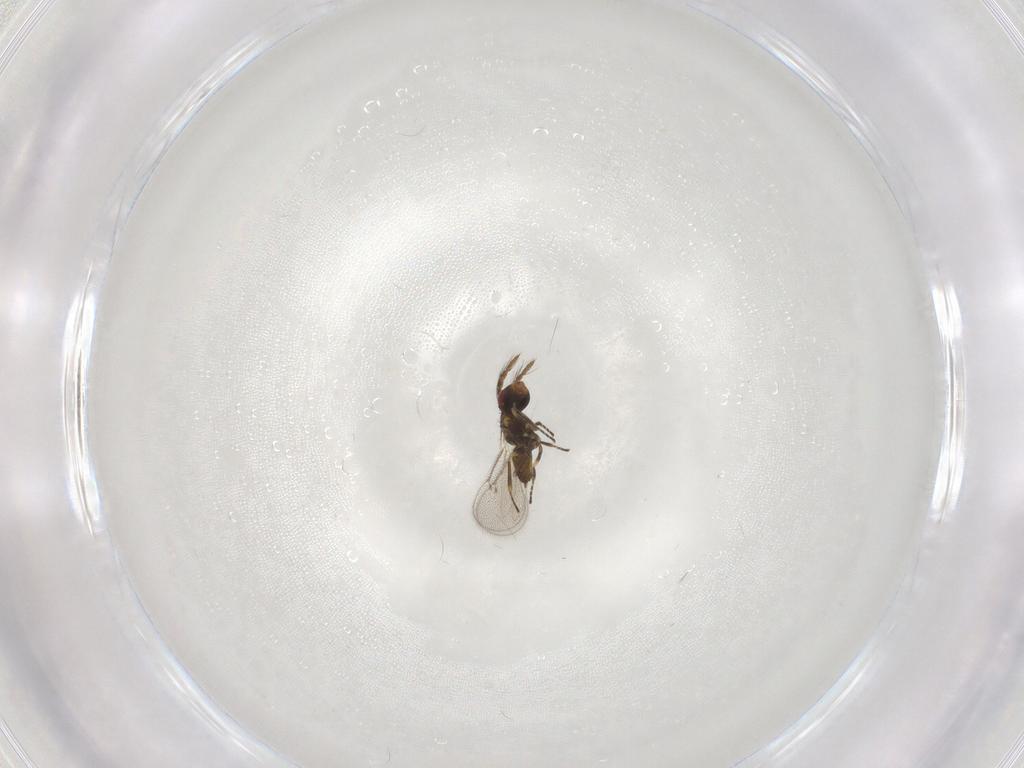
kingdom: Animalia
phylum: Arthropoda
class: Insecta
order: Hymenoptera
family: Eulophidae
